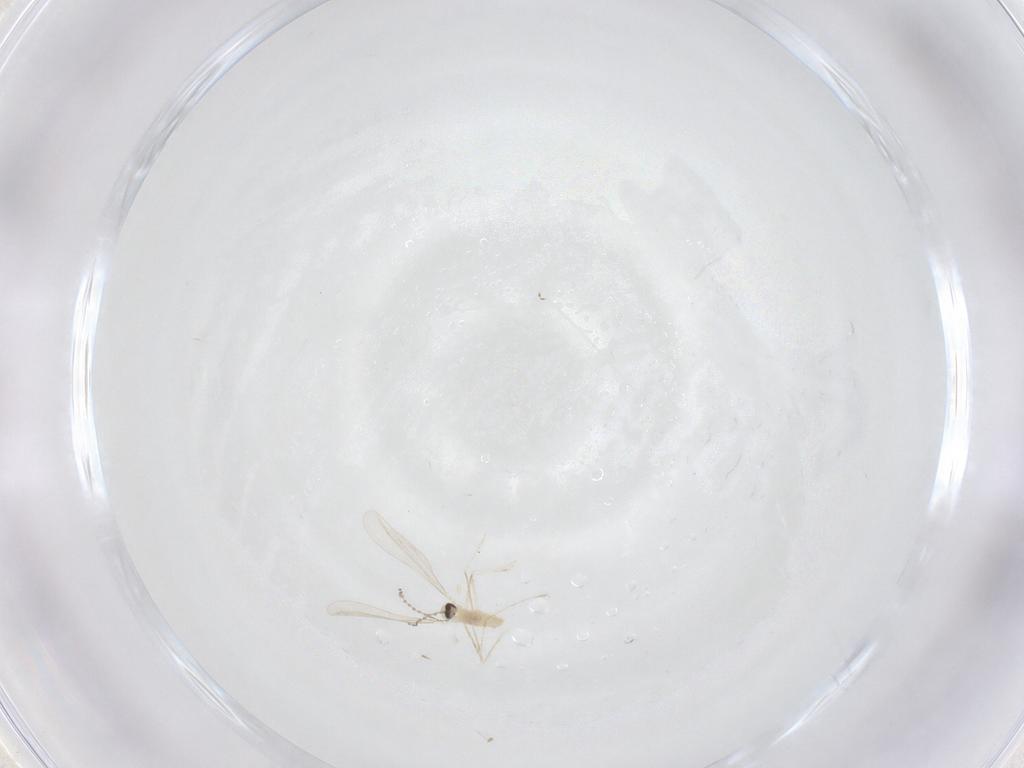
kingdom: Animalia
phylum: Arthropoda
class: Insecta
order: Diptera
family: Cecidomyiidae
